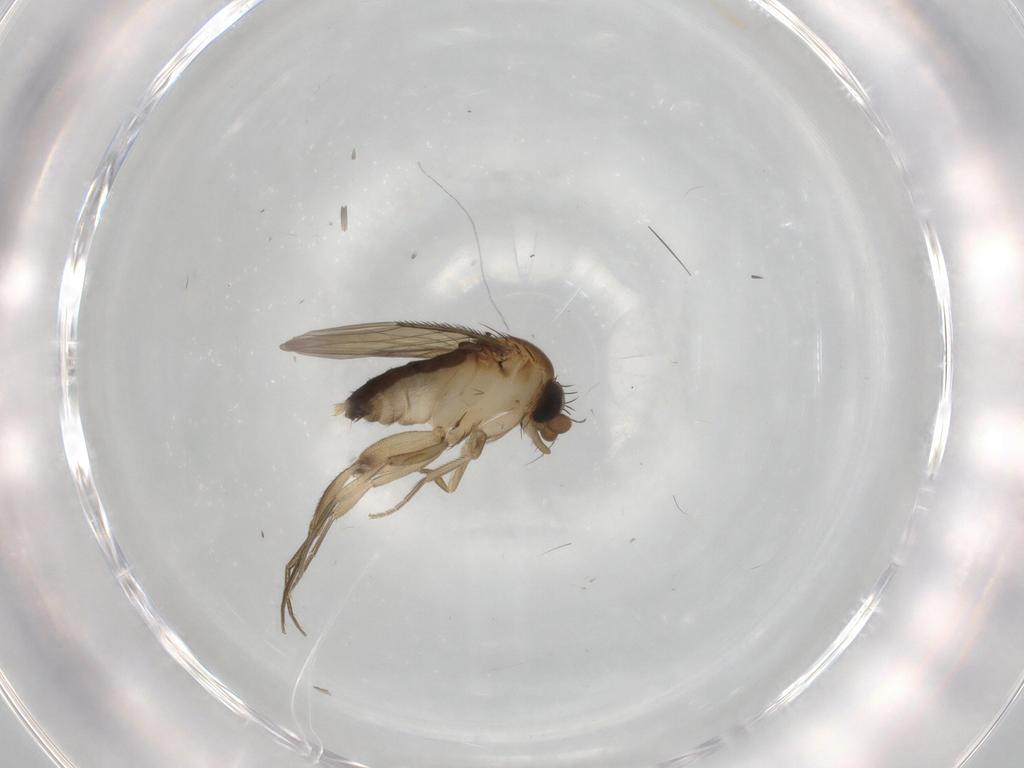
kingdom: Animalia
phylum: Arthropoda
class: Insecta
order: Diptera
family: Phoridae
